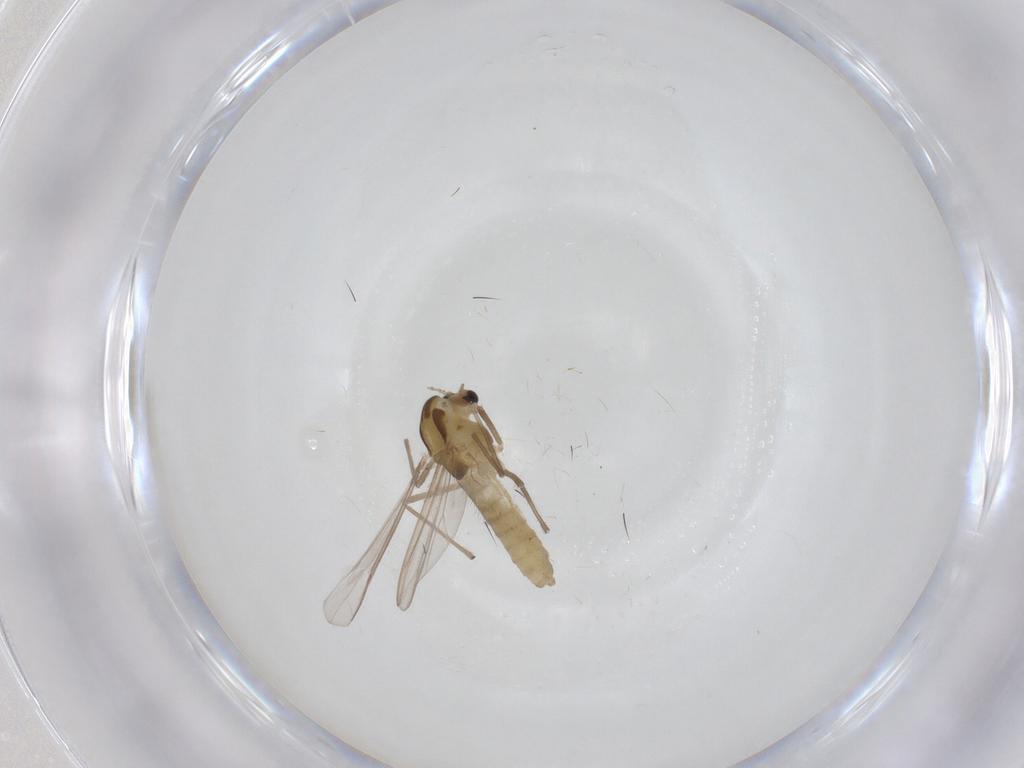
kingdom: Animalia
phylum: Arthropoda
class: Insecta
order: Diptera
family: Chironomidae
